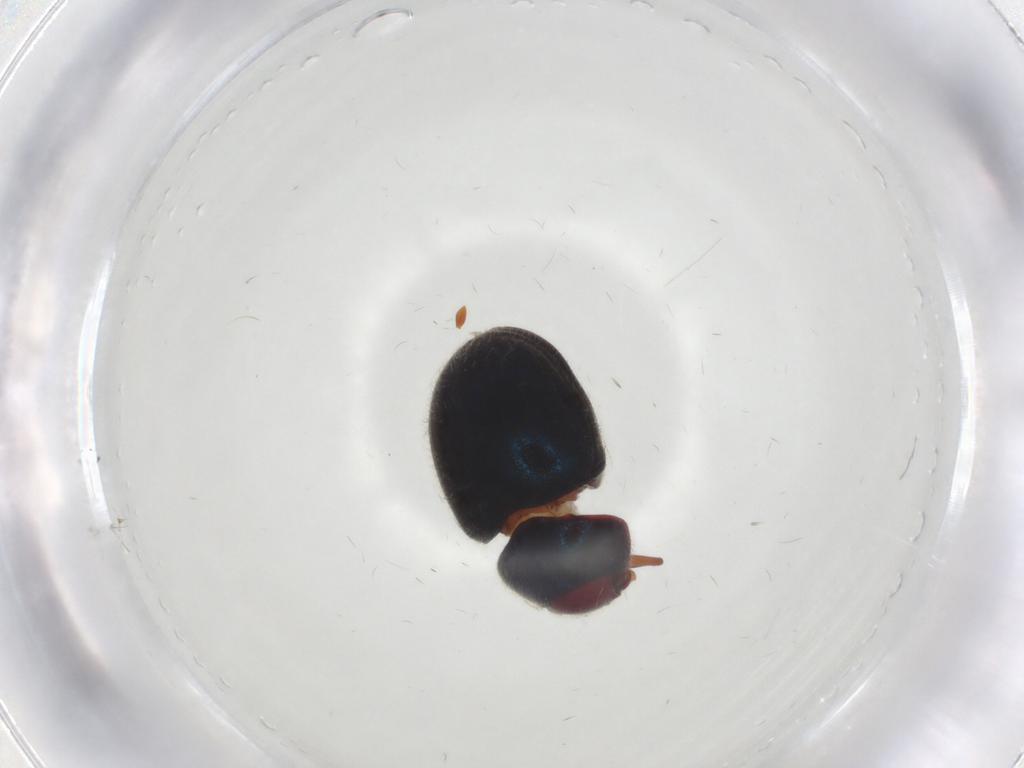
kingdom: Animalia
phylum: Arthropoda
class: Insecta
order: Coleoptera
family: Ptinidae
